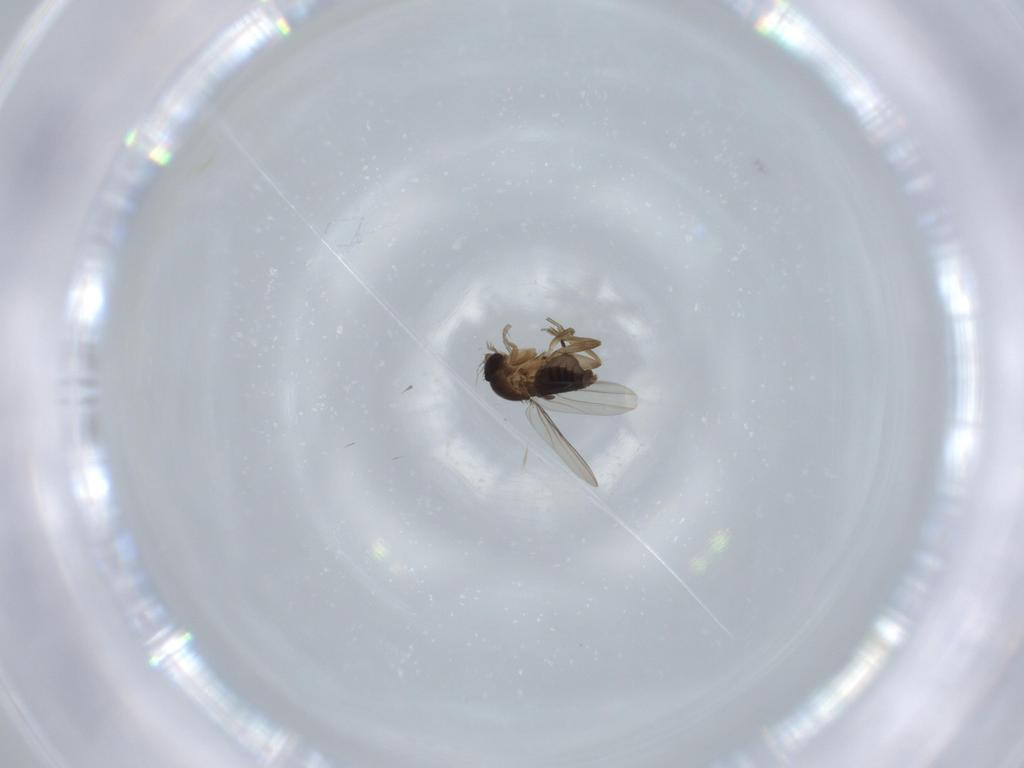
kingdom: Animalia
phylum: Arthropoda
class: Insecta
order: Diptera
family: Phoridae
